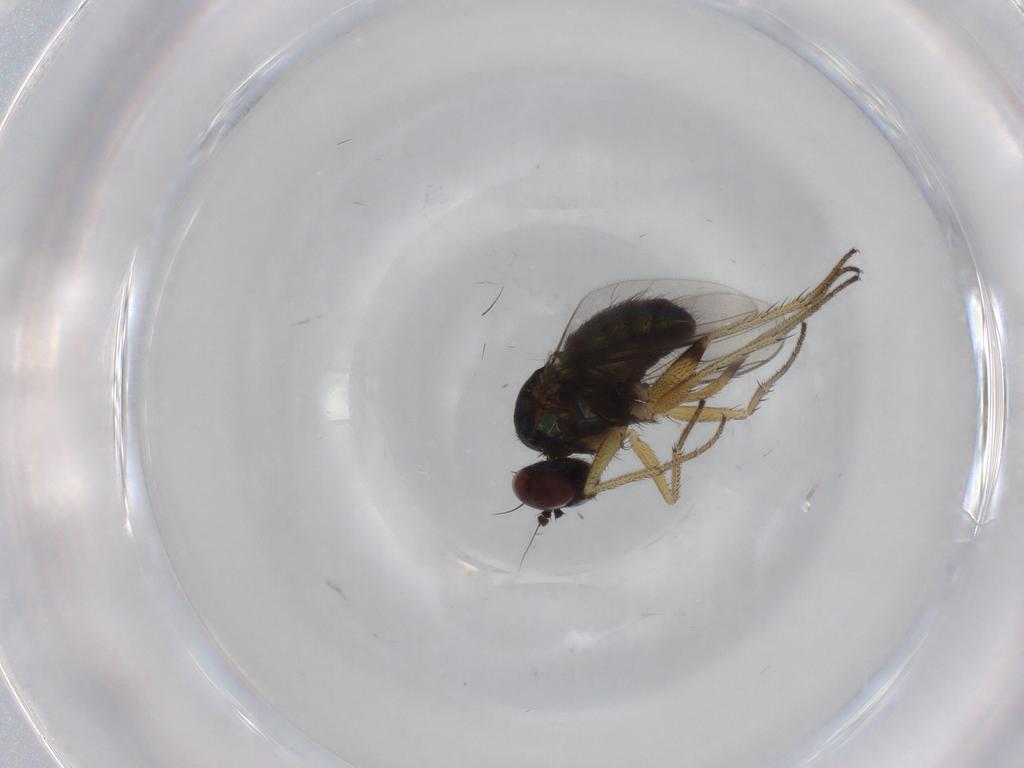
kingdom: Animalia
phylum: Arthropoda
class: Insecta
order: Diptera
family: Dolichopodidae
